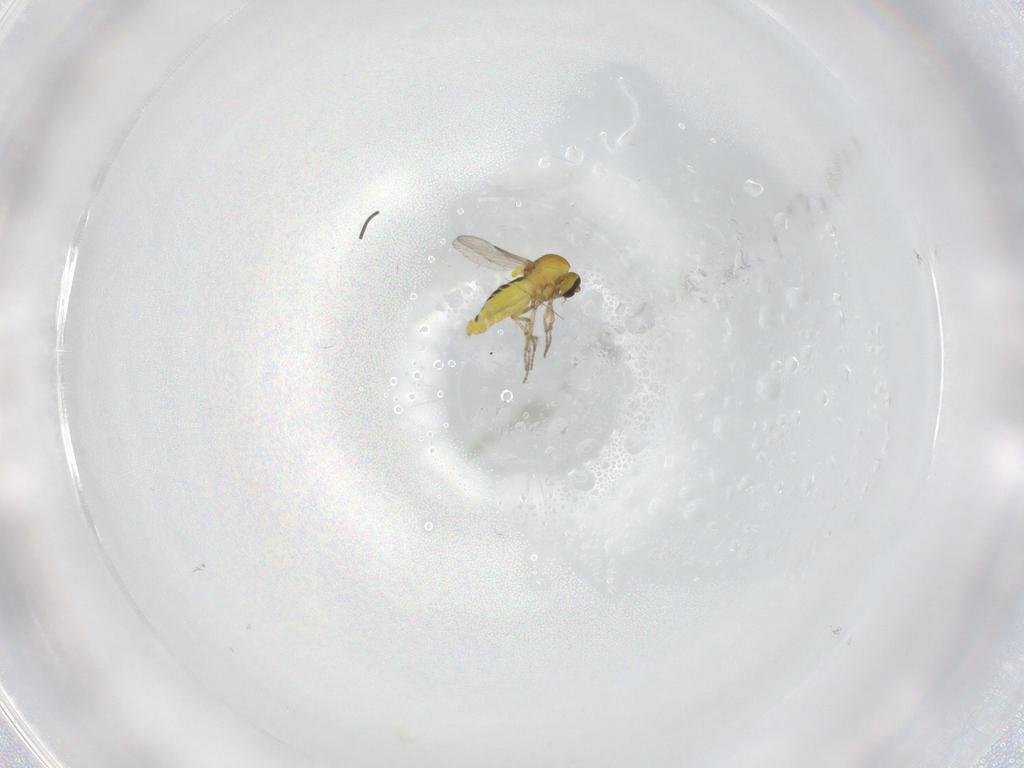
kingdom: Animalia
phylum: Arthropoda
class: Insecta
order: Diptera
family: Ceratopogonidae
